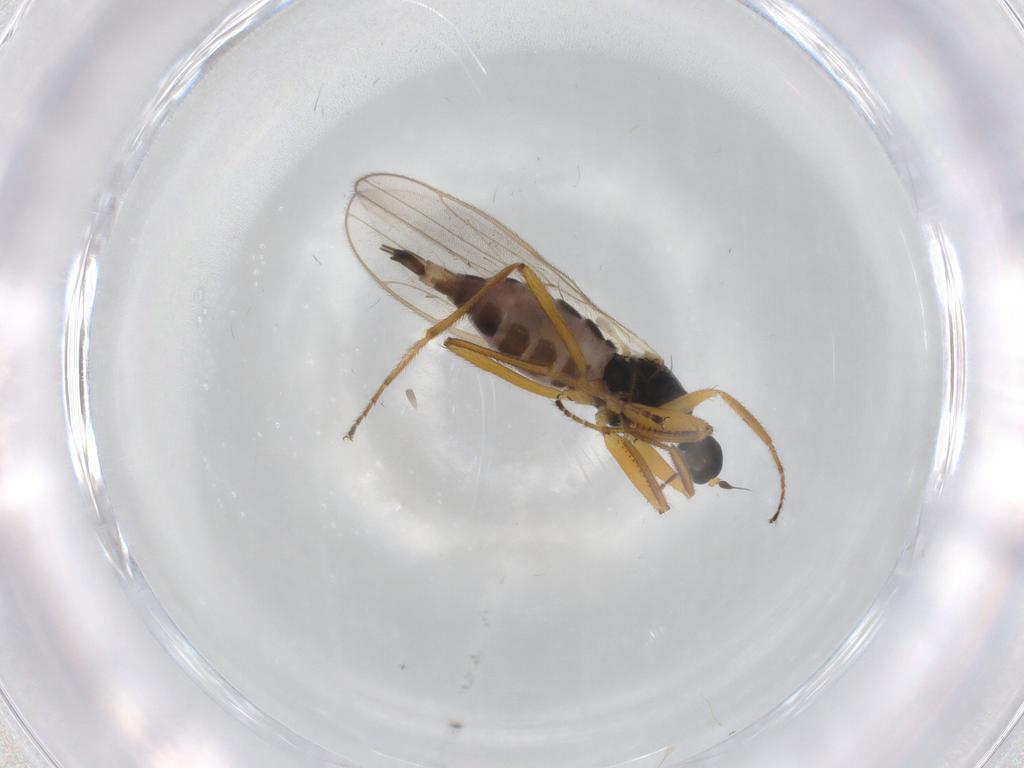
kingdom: Animalia
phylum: Arthropoda
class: Insecta
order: Diptera
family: Hybotidae
